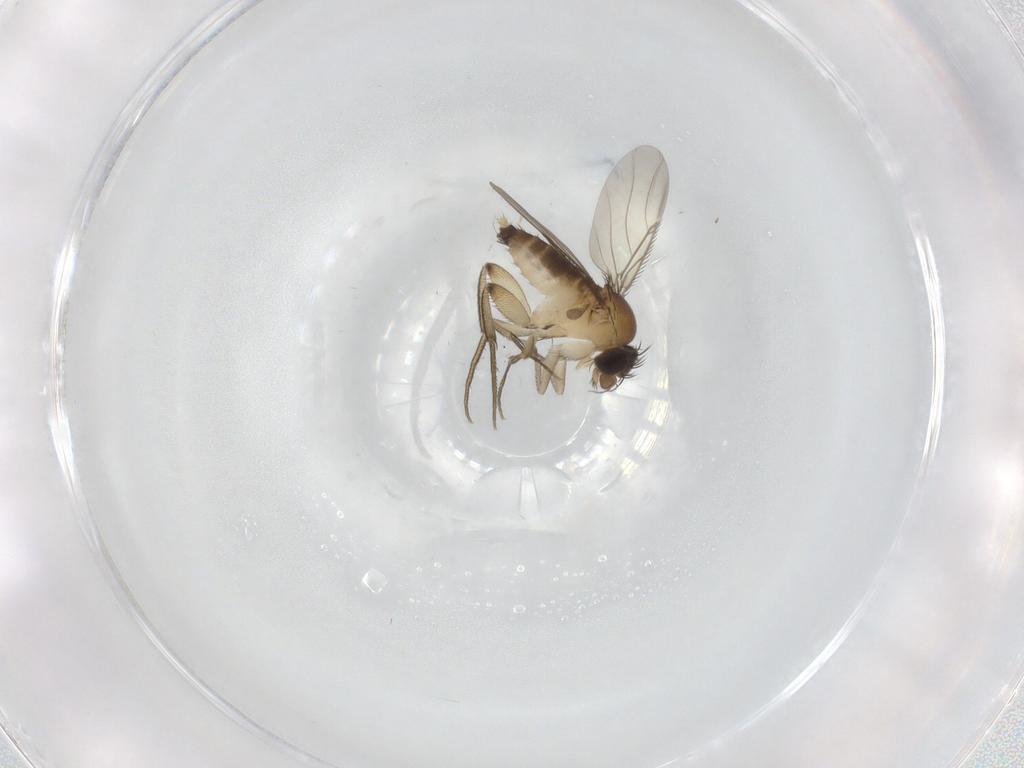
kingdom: Animalia
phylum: Arthropoda
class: Insecta
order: Diptera
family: Phoridae
